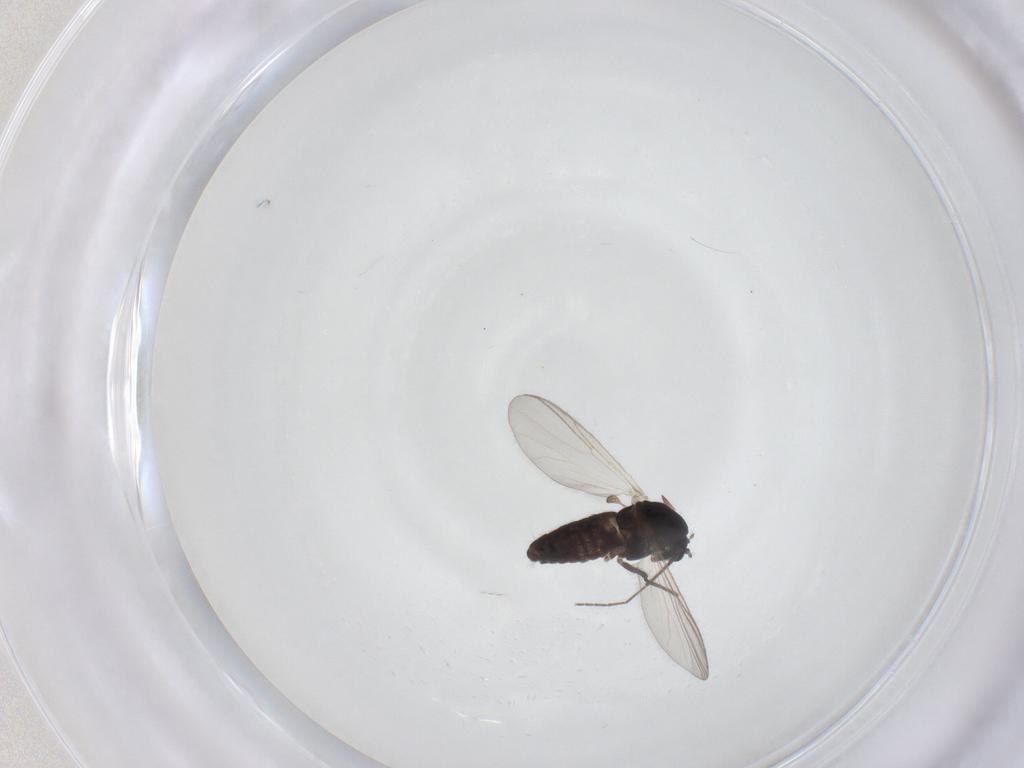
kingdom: Animalia
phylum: Arthropoda
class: Insecta
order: Diptera
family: Chironomidae
